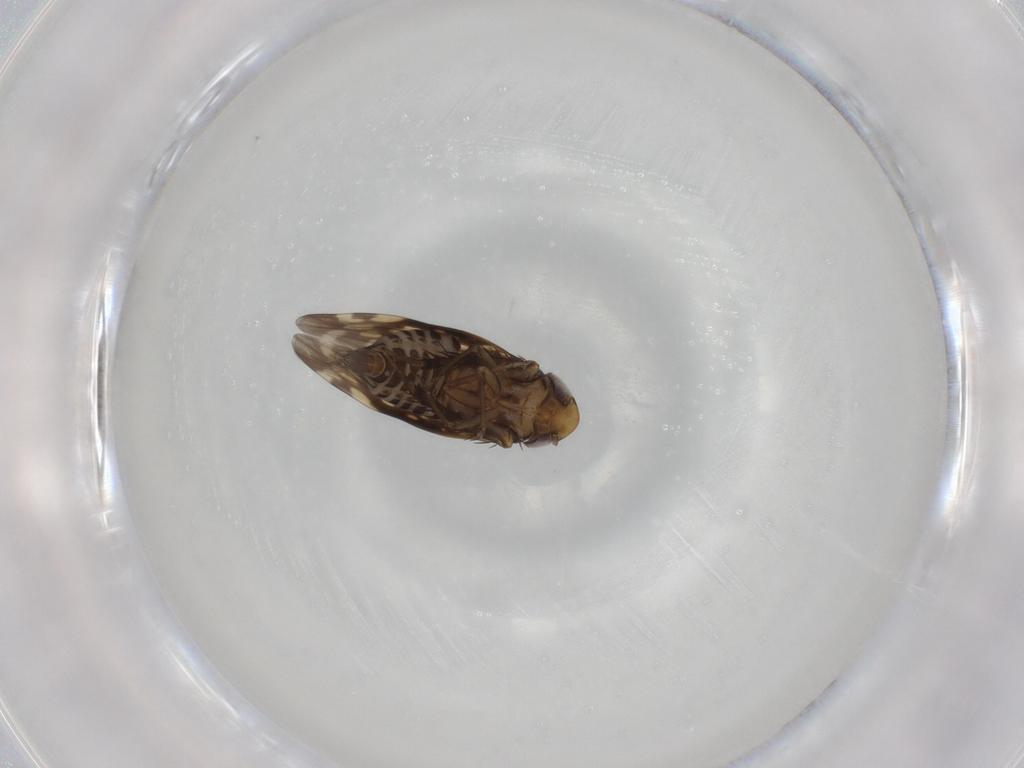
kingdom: Animalia
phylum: Arthropoda
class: Insecta
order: Hemiptera
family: Cicadellidae
